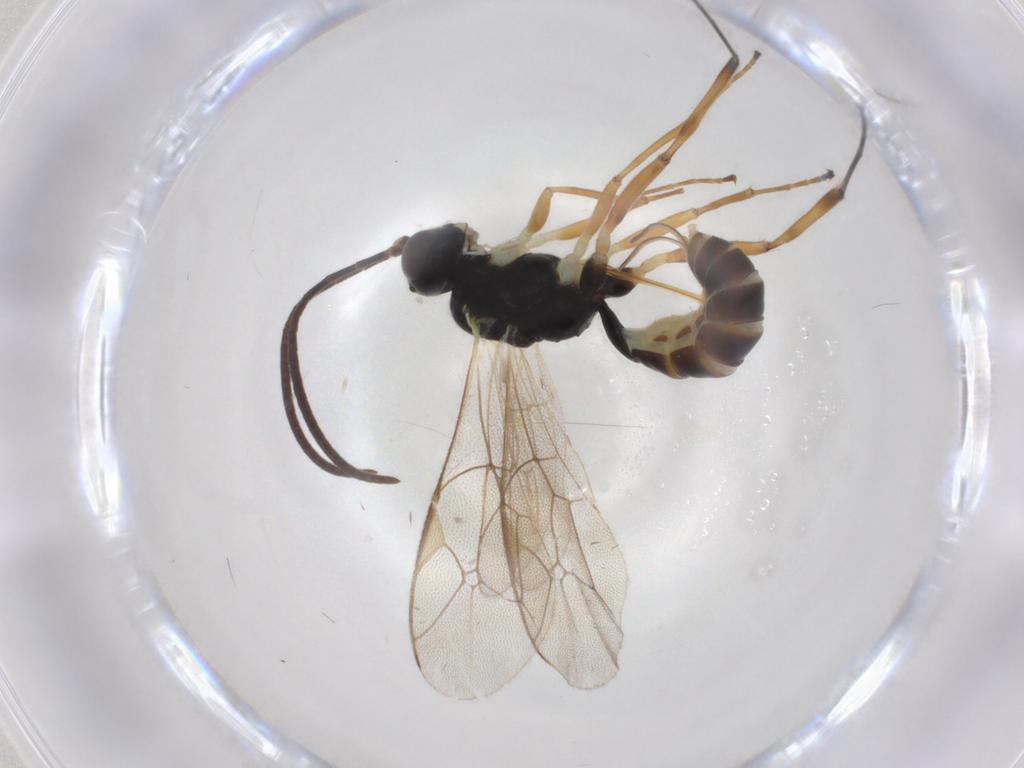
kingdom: Animalia
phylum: Arthropoda
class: Insecta
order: Hymenoptera
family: Ichneumonidae
